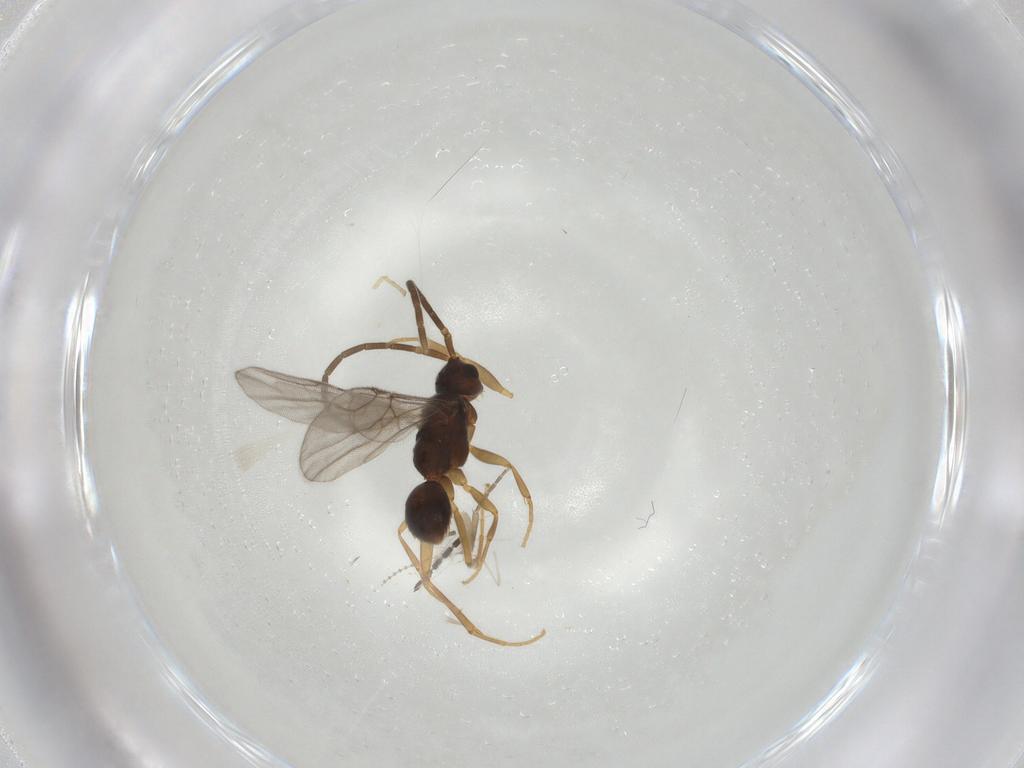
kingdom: Animalia
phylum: Arthropoda
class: Insecta
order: Hymenoptera
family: Embolemidae
